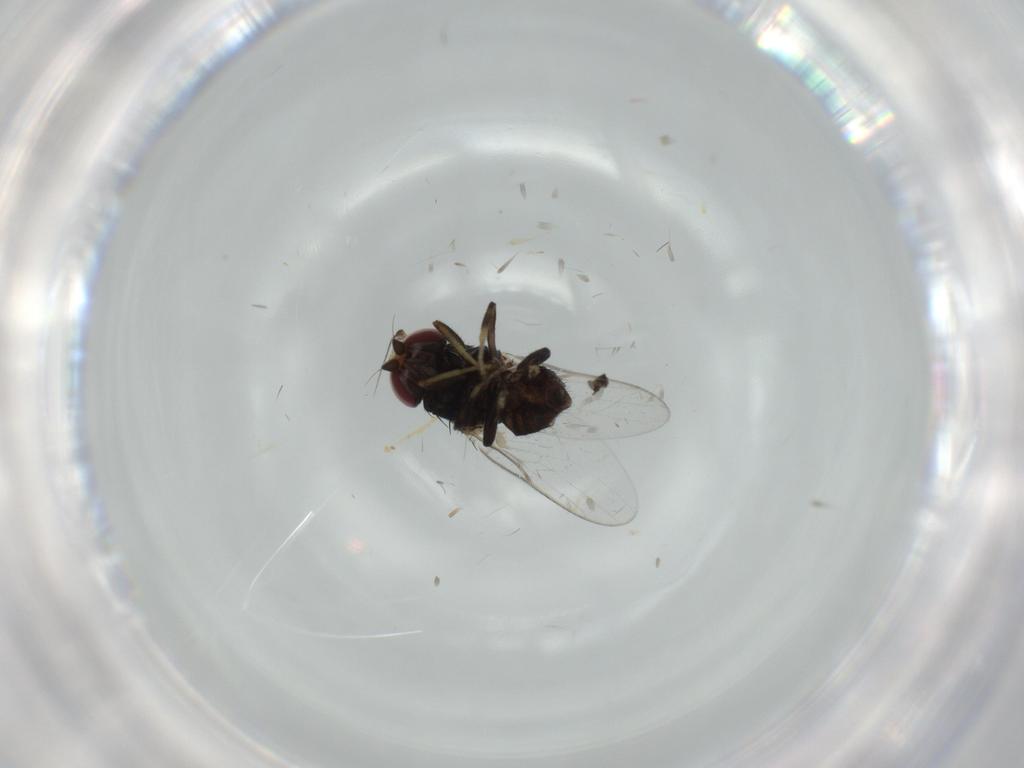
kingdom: Animalia
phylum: Arthropoda
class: Insecta
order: Diptera
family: Chloropidae
